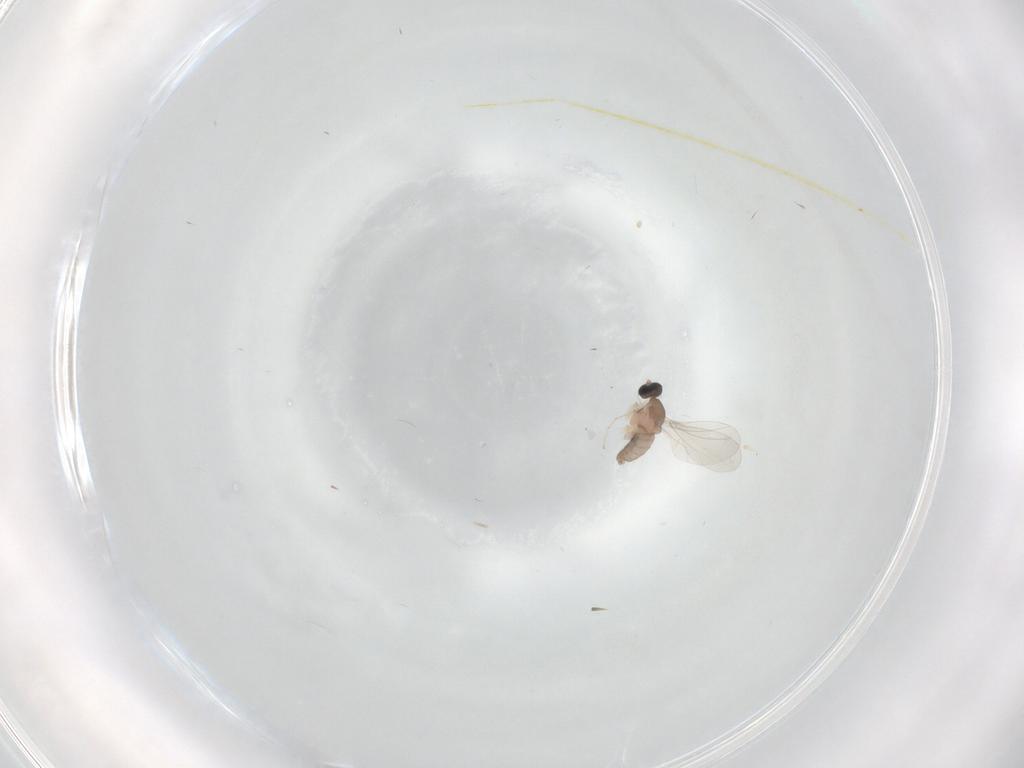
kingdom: Animalia
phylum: Arthropoda
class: Insecta
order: Diptera
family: Cecidomyiidae
